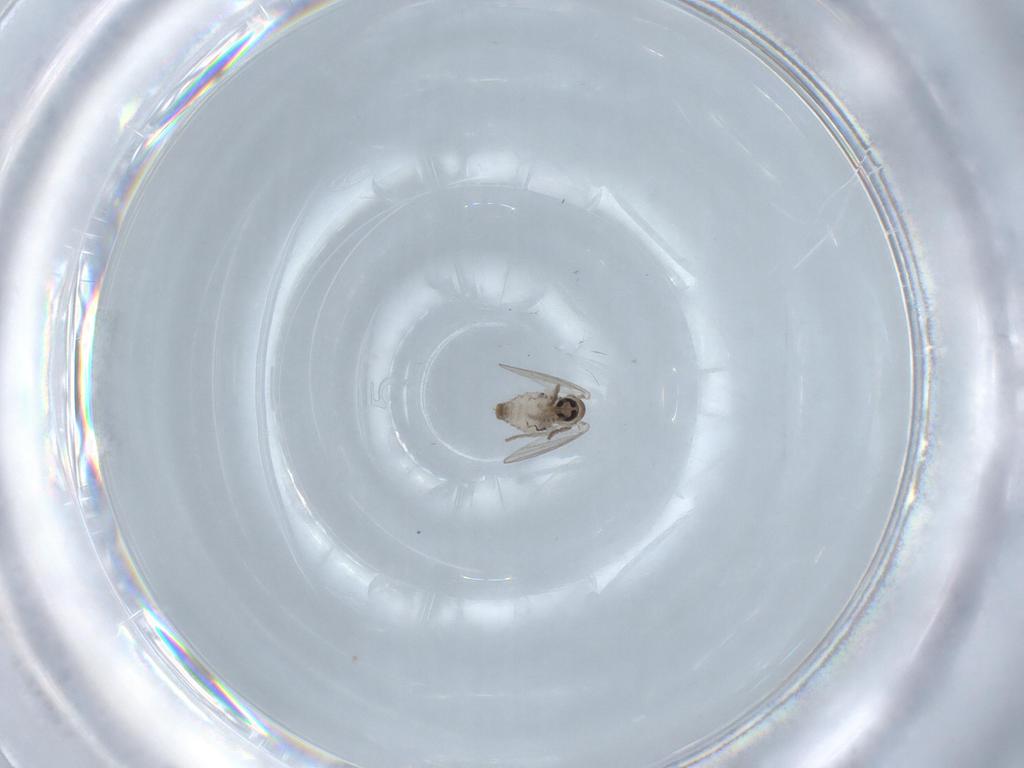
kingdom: Animalia
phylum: Arthropoda
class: Insecta
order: Diptera
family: Psychodidae
